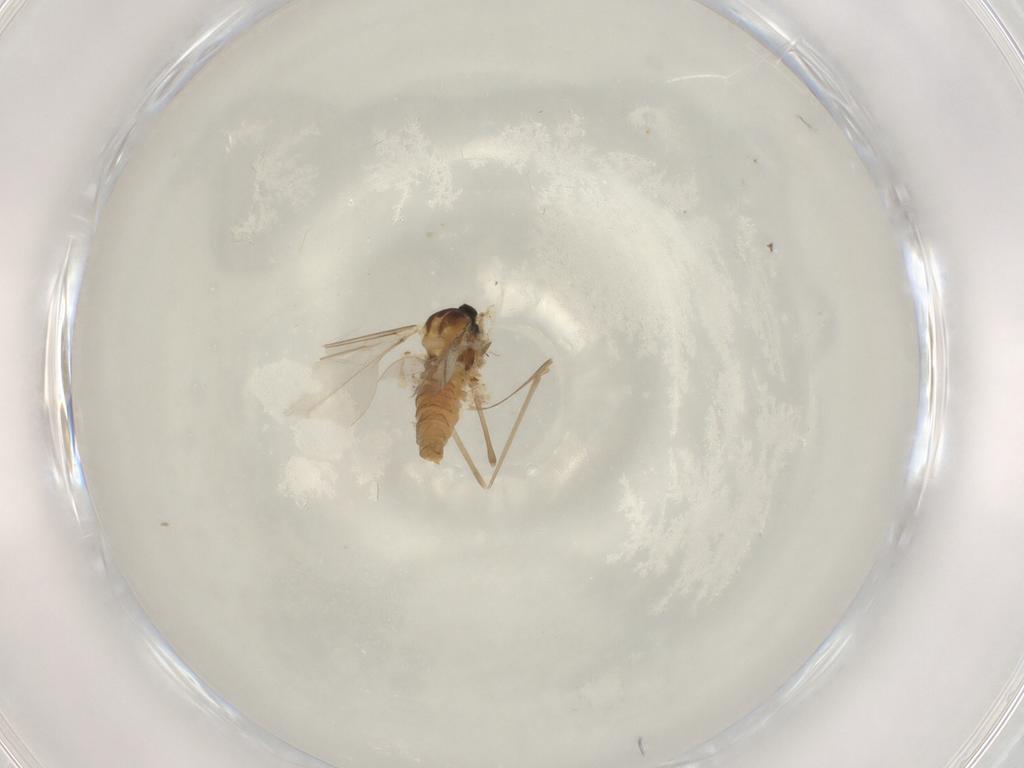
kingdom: Animalia
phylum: Arthropoda
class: Insecta
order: Diptera
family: Cecidomyiidae
